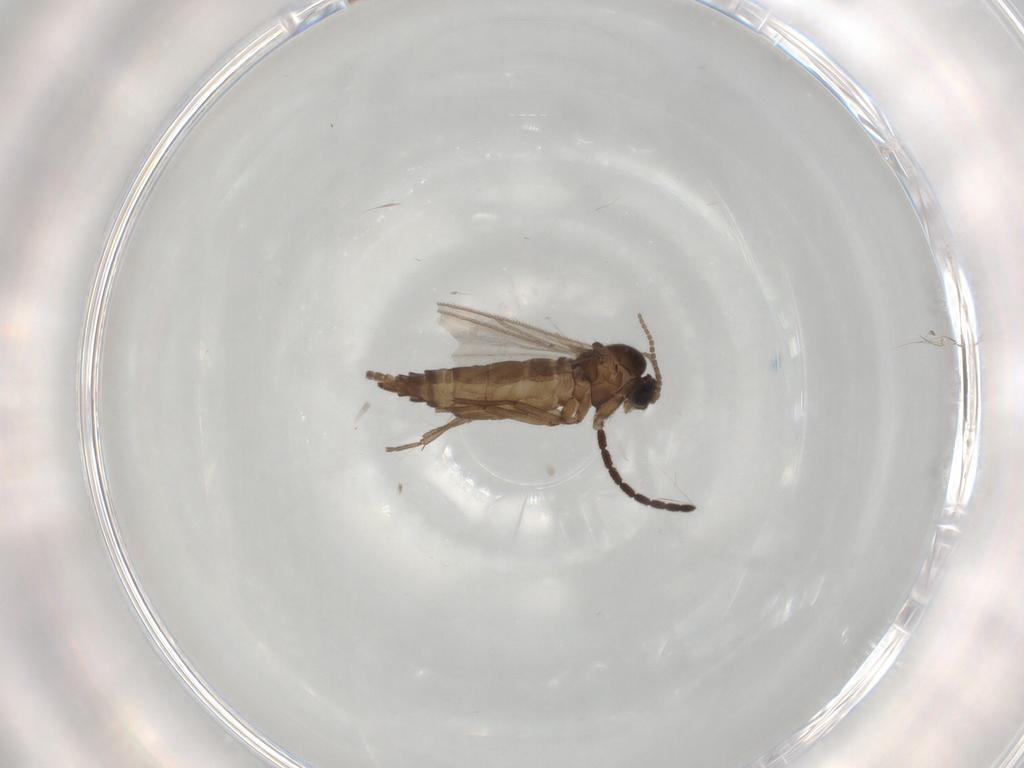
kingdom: Animalia
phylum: Arthropoda
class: Insecta
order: Diptera
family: Sciaridae
